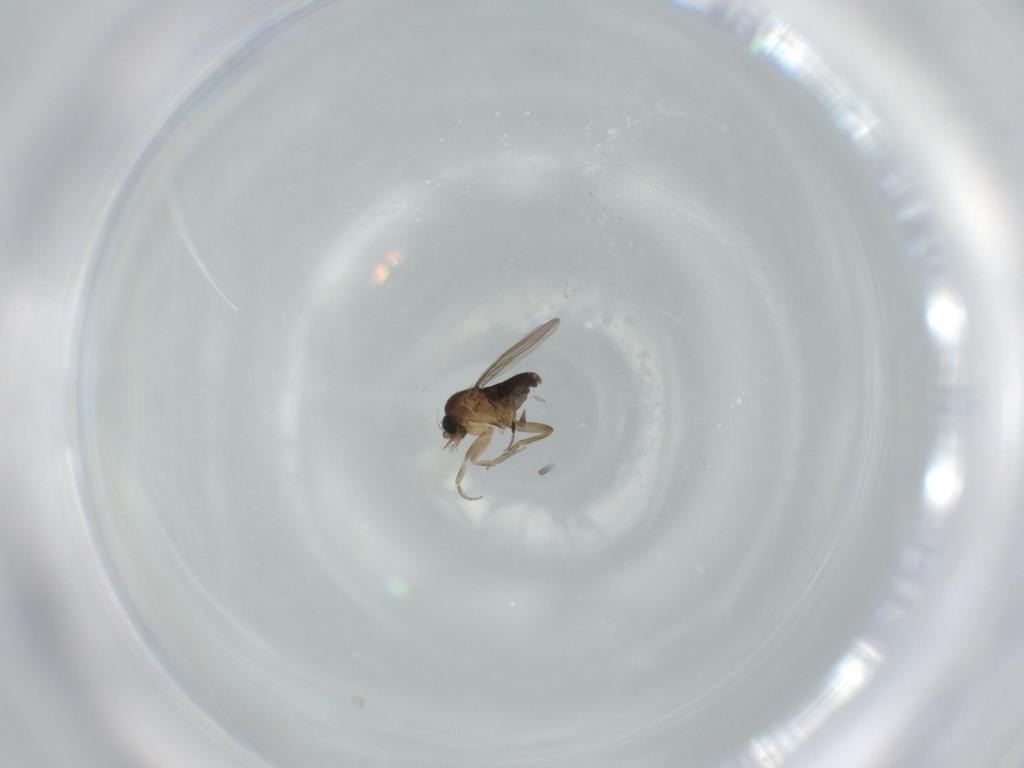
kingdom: Animalia
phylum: Arthropoda
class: Insecta
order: Diptera
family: Phoridae
